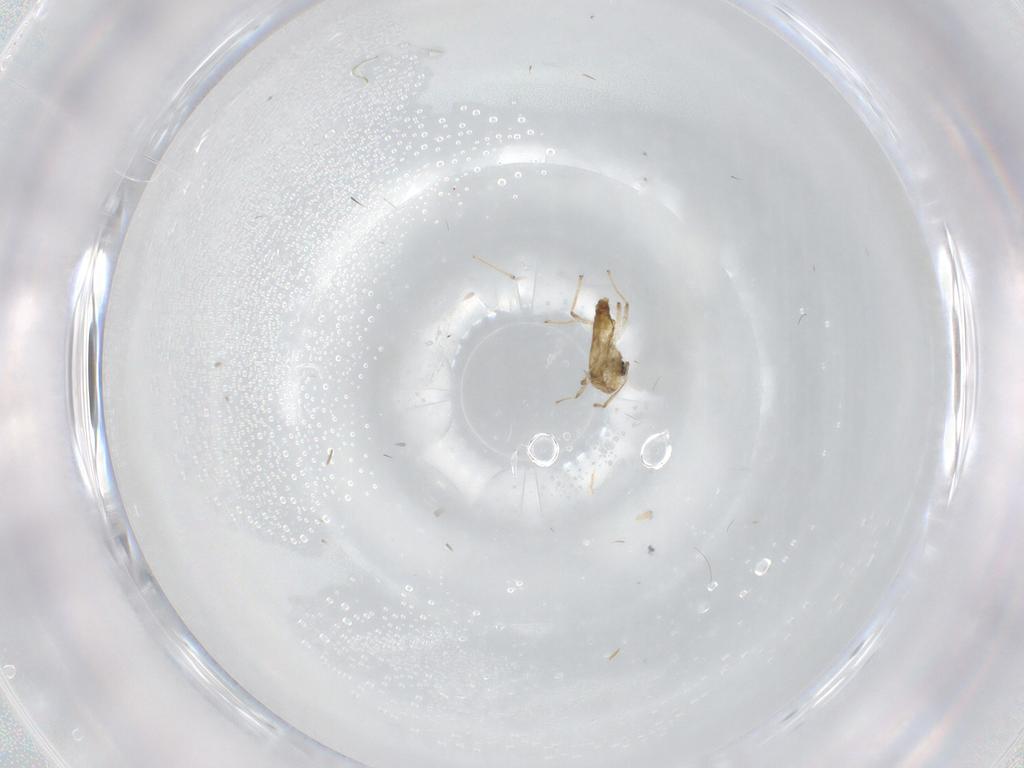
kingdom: Animalia
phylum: Arthropoda
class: Insecta
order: Diptera
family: Chironomidae
